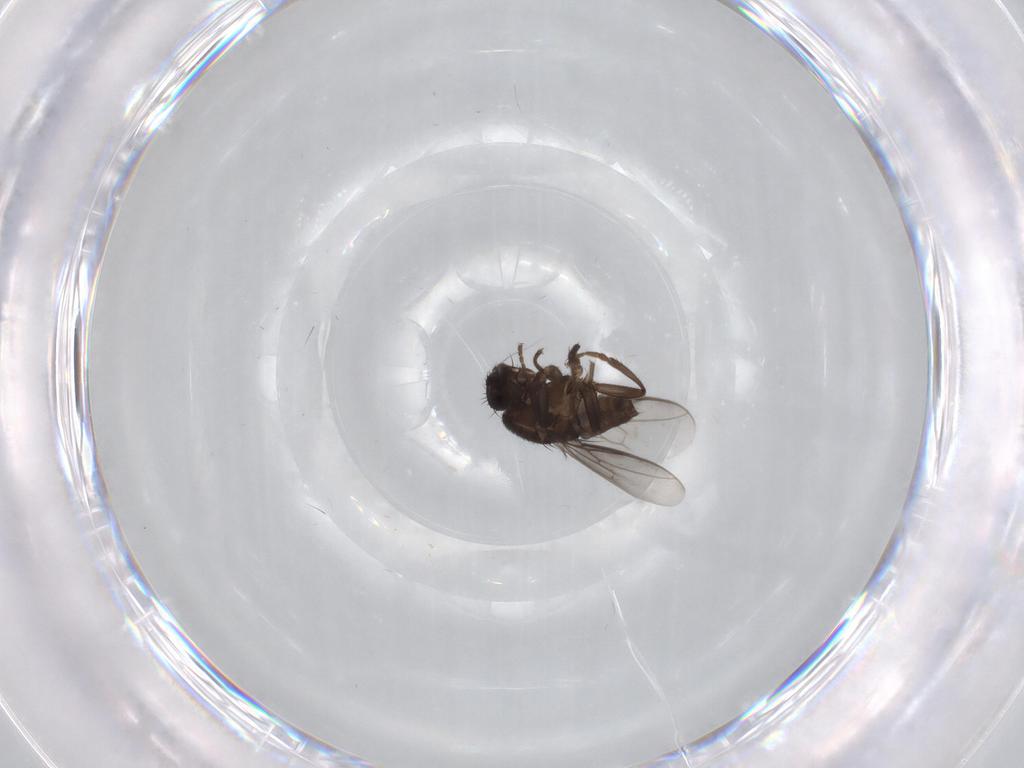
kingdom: Animalia
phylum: Arthropoda
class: Insecta
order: Diptera
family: Sphaeroceridae
